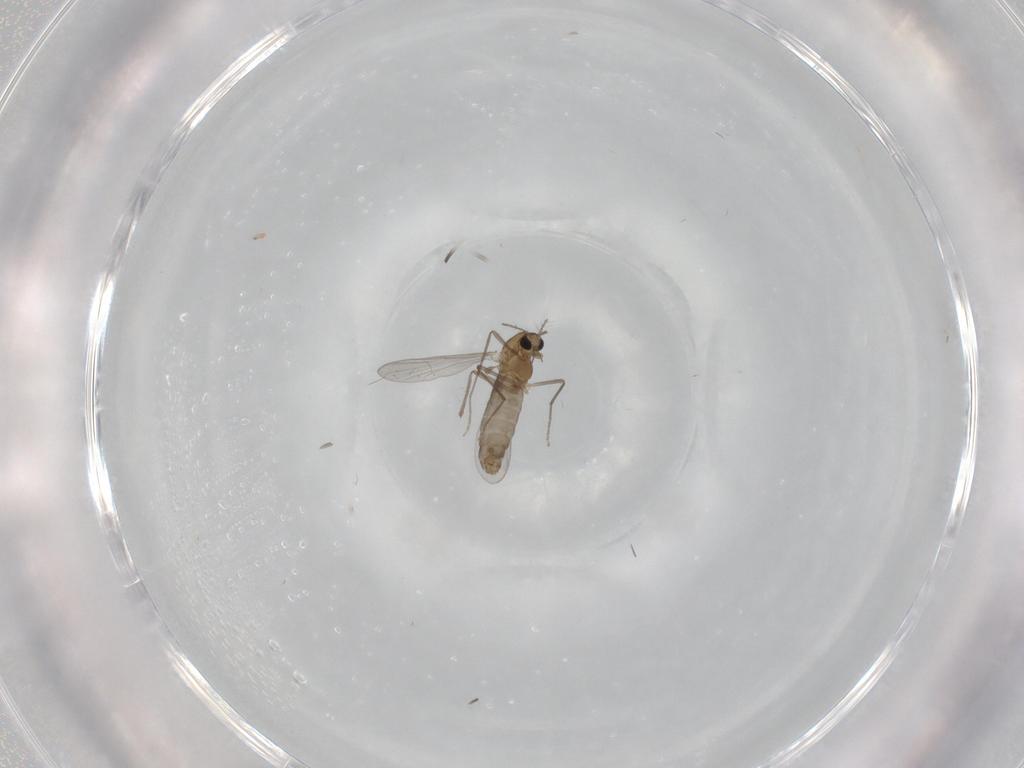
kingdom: Animalia
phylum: Arthropoda
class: Insecta
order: Diptera
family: Chironomidae
